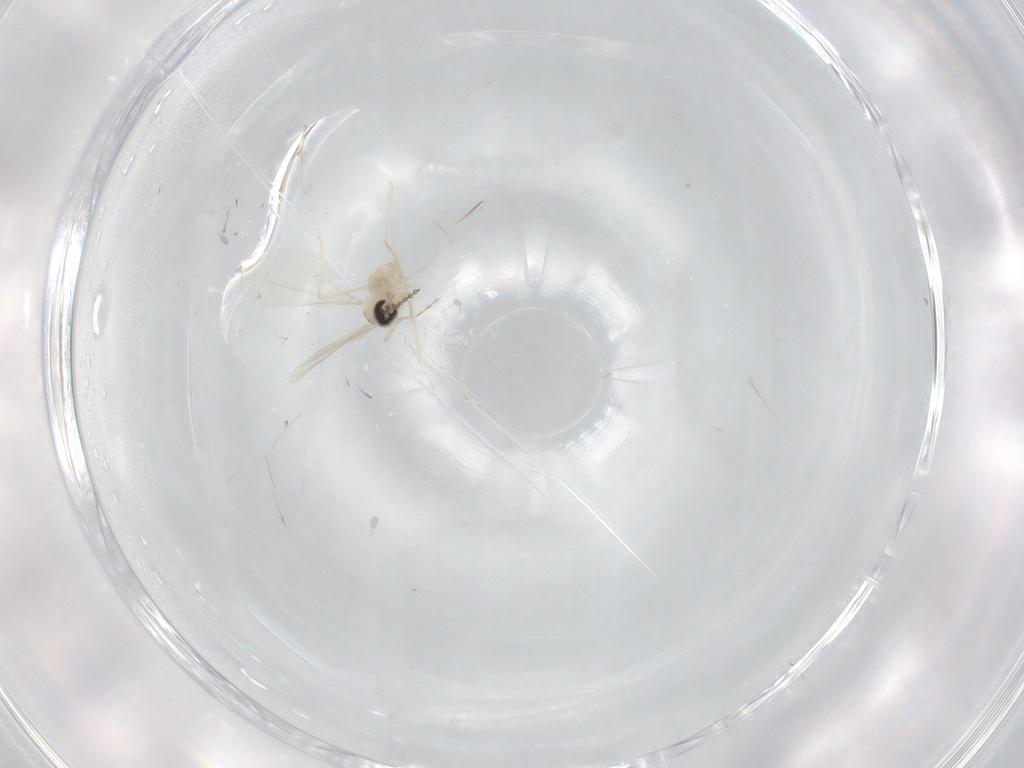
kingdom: Animalia
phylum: Arthropoda
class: Insecta
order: Diptera
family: Cecidomyiidae
